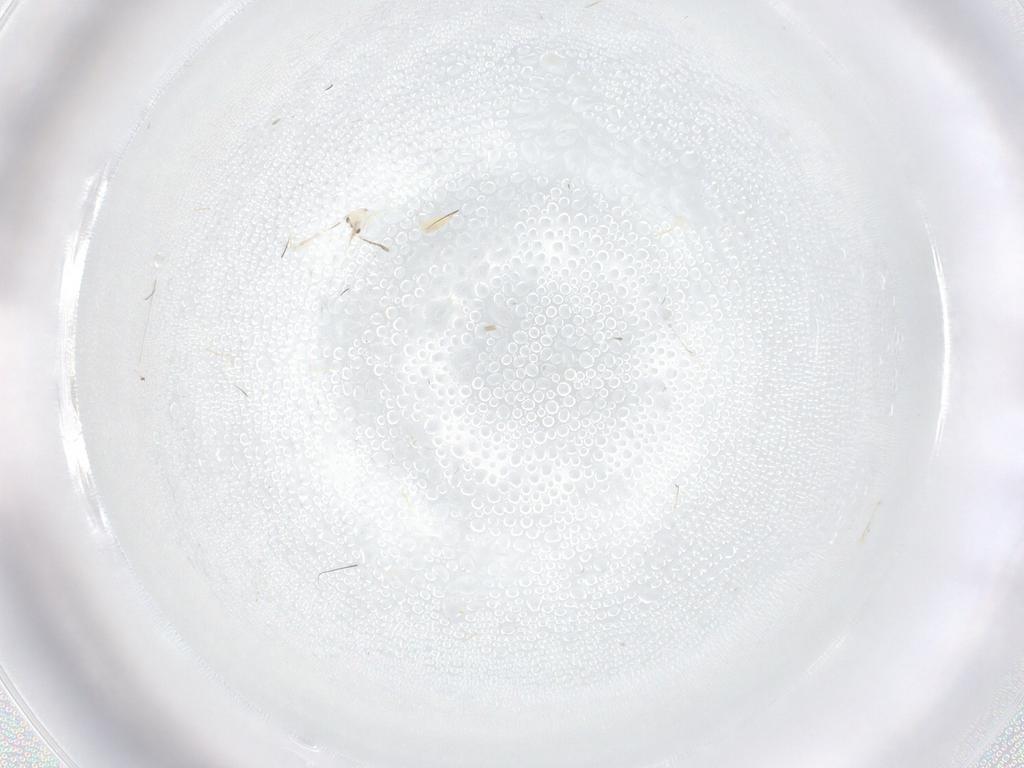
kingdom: Animalia
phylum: Arthropoda
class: Insecta
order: Hymenoptera
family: Mymaridae
